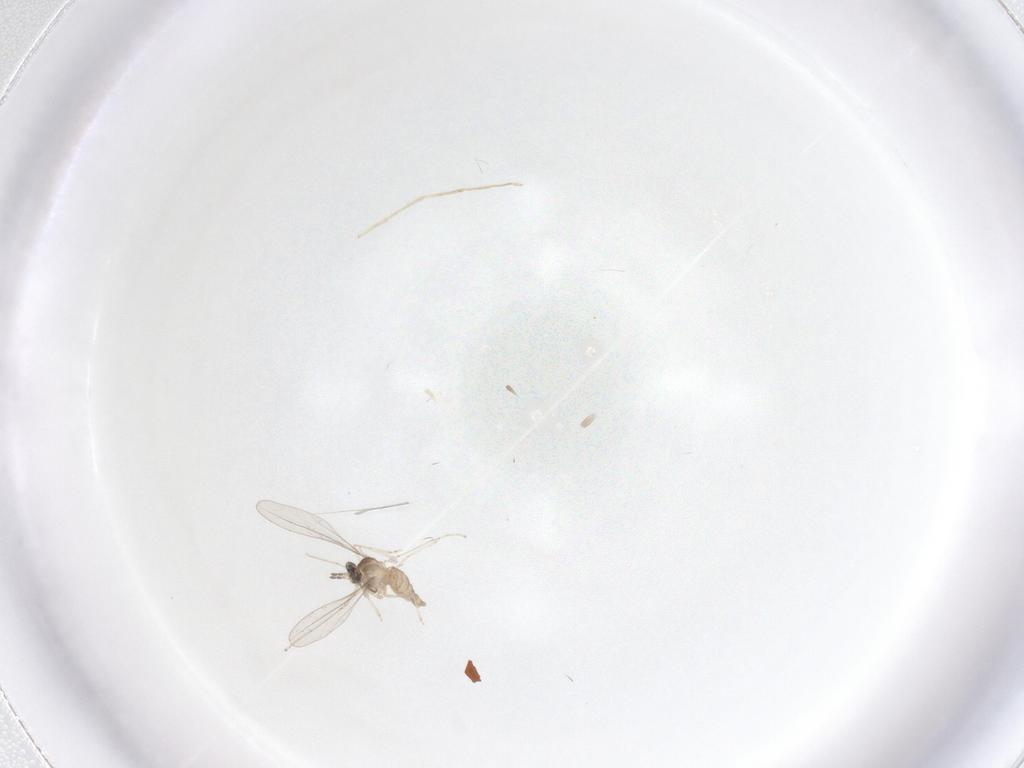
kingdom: Animalia
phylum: Arthropoda
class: Insecta
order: Diptera
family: Cecidomyiidae
